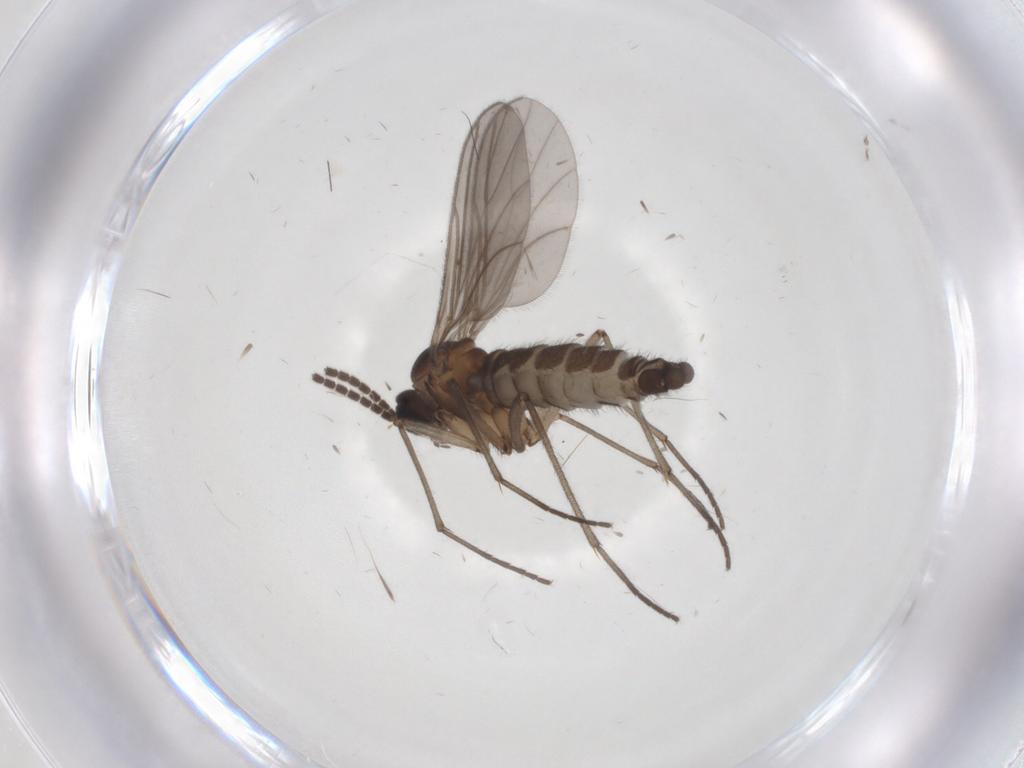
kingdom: Animalia
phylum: Arthropoda
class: Insecta
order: Diptera
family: Sciaridae
